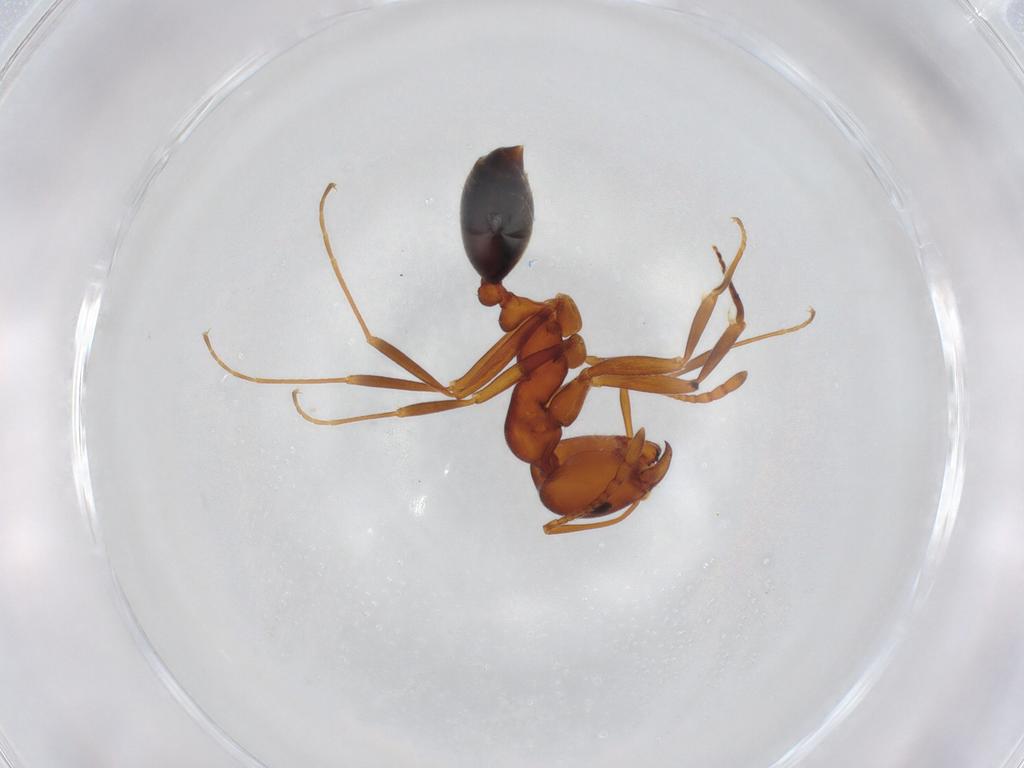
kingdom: Animalia
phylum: Arthropoda
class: Insecta
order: Hymenoptera
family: Formicidae
